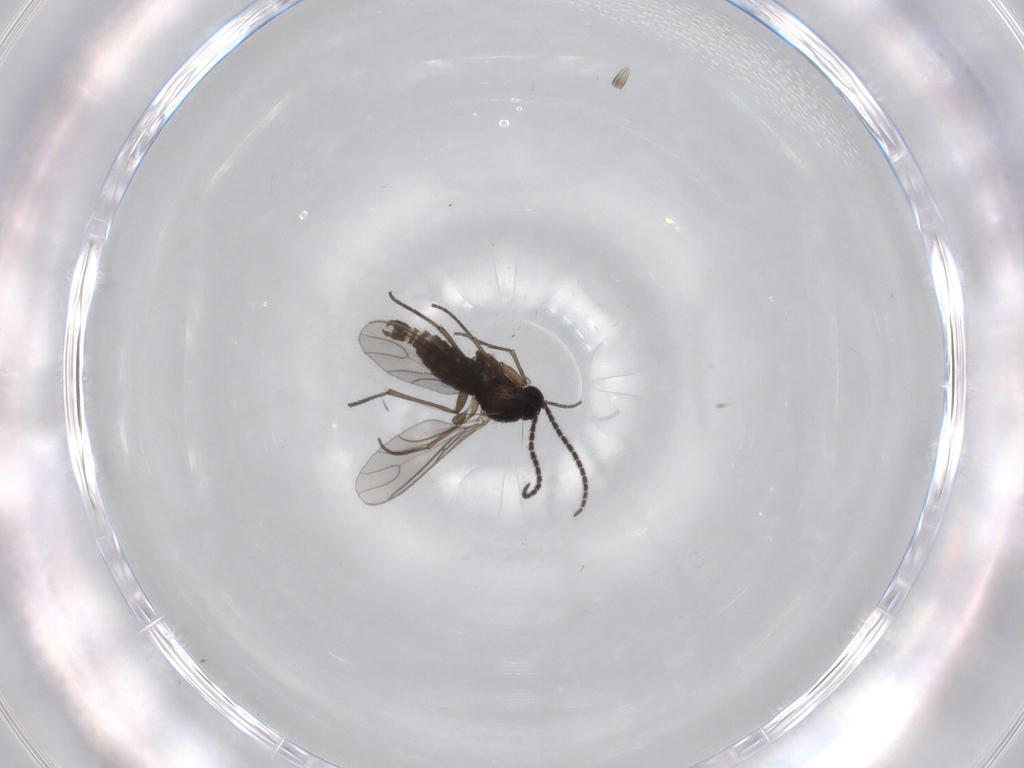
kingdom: Animalia
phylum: Arthropoda
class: Insecta
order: Diptera
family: Sciaridae
